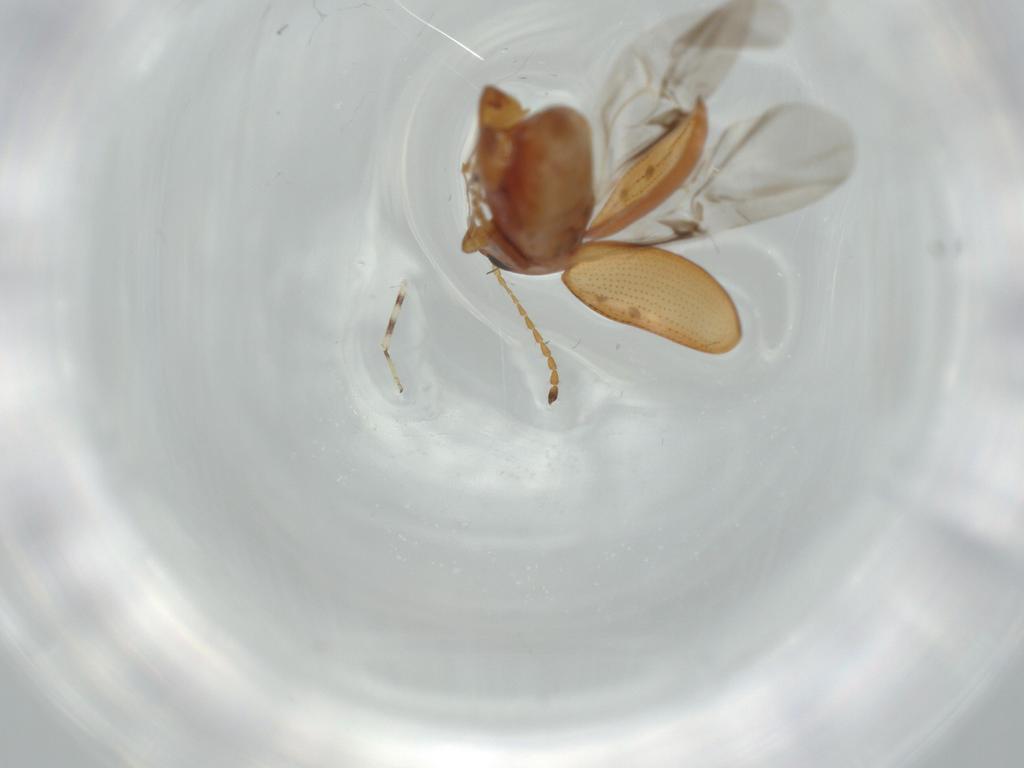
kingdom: Animalia
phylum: Arthropoda
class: Insecta
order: Coleoptera
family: Chrysomelidae
